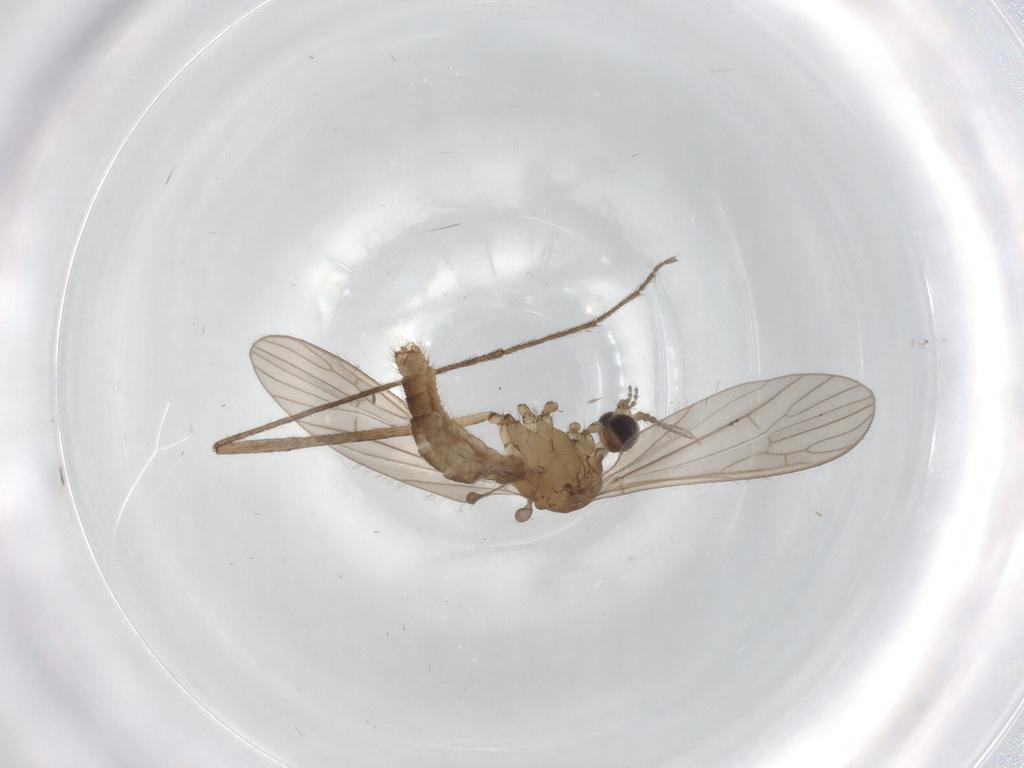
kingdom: Animalia
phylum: Arthropoda
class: Insecta
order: Diptera
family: Limoniidae
